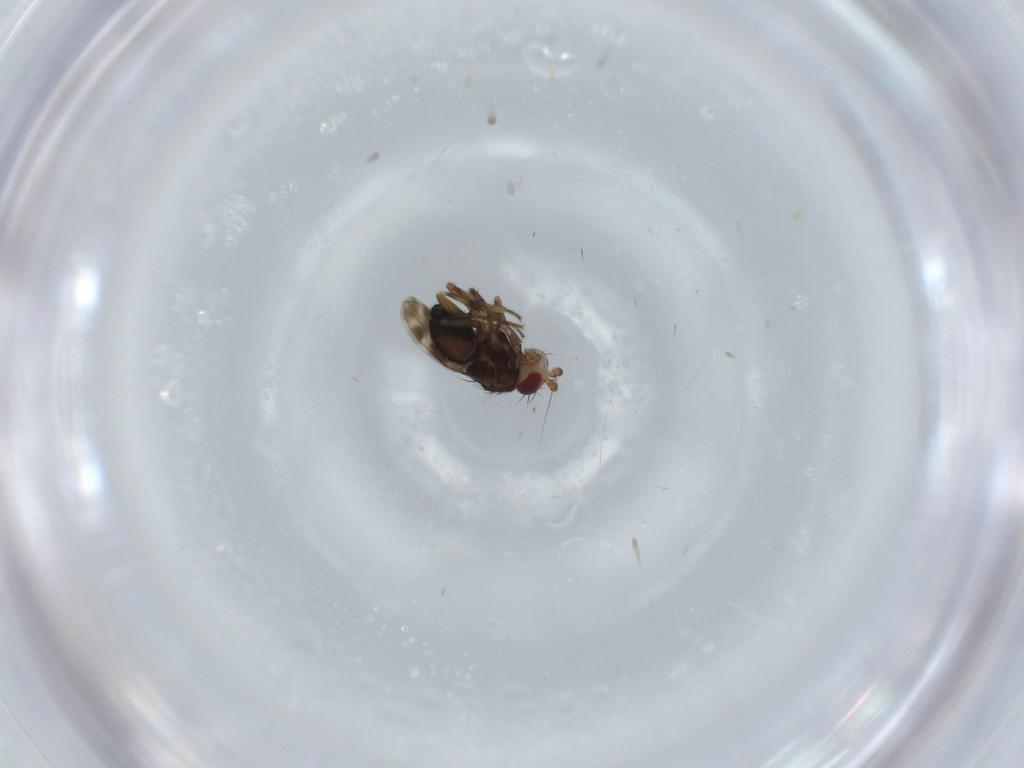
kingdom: Animalia
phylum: Arthropoda
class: Insecta
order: Diptera
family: Sphaeroceridae
